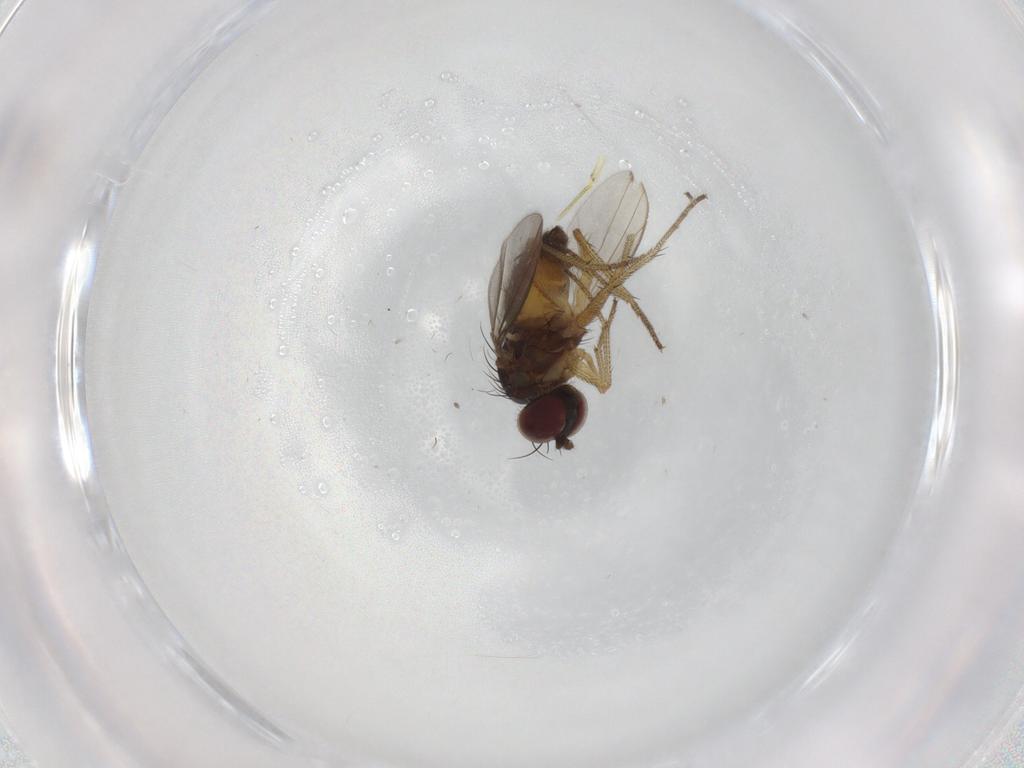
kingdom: Animalia
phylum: Arthropoda
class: Insecta
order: Diptera
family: Dolichopodidae
